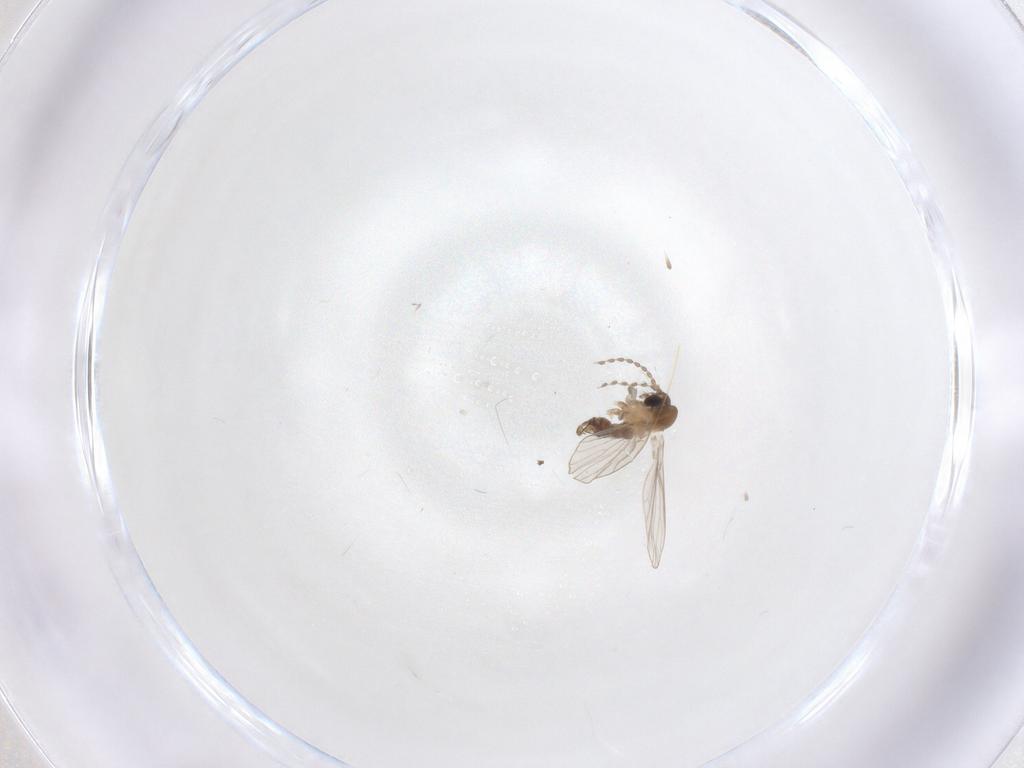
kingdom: Animalia
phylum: Arthropoda
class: Insecta
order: Diptera
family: Psychodidae
